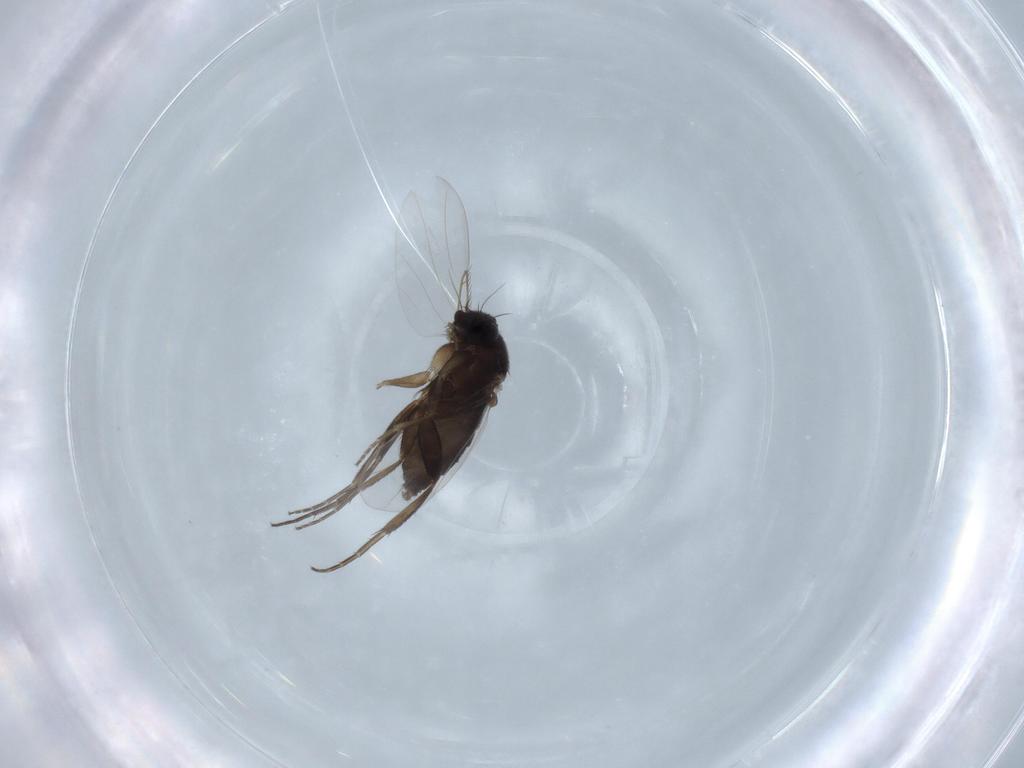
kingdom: Animalia
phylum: Arthropoda
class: Insecta
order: Diptera
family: Phoridae
